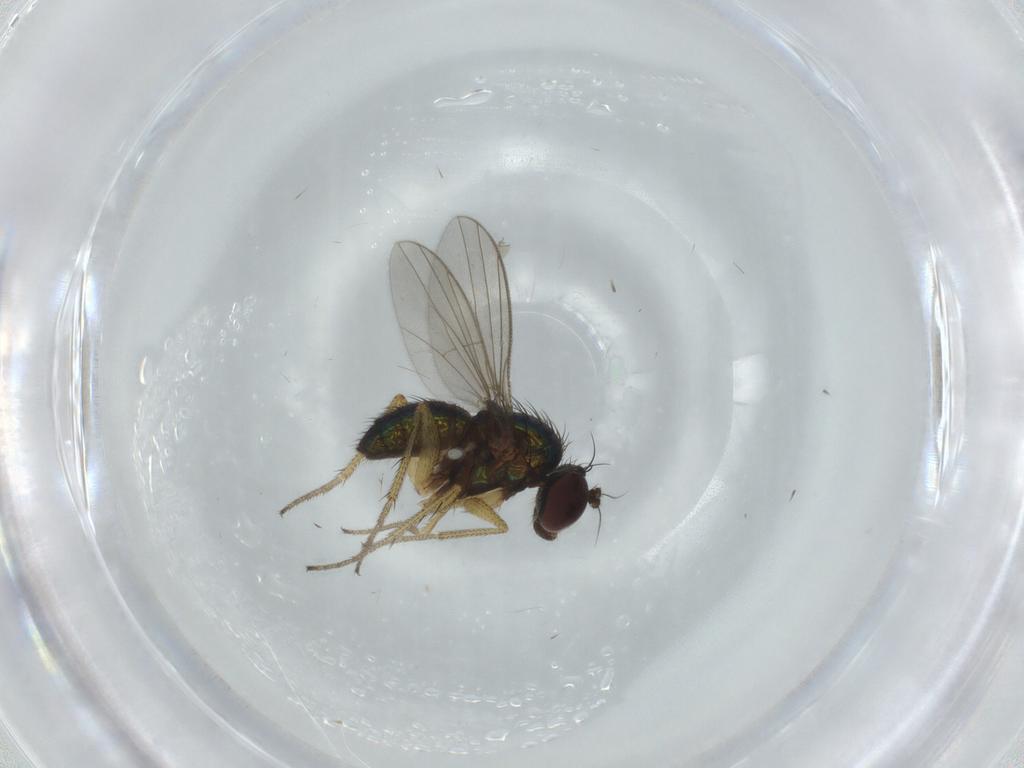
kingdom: Animalia
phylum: Arthropoda
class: Insecta
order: Diptera
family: Dolichopodidae
